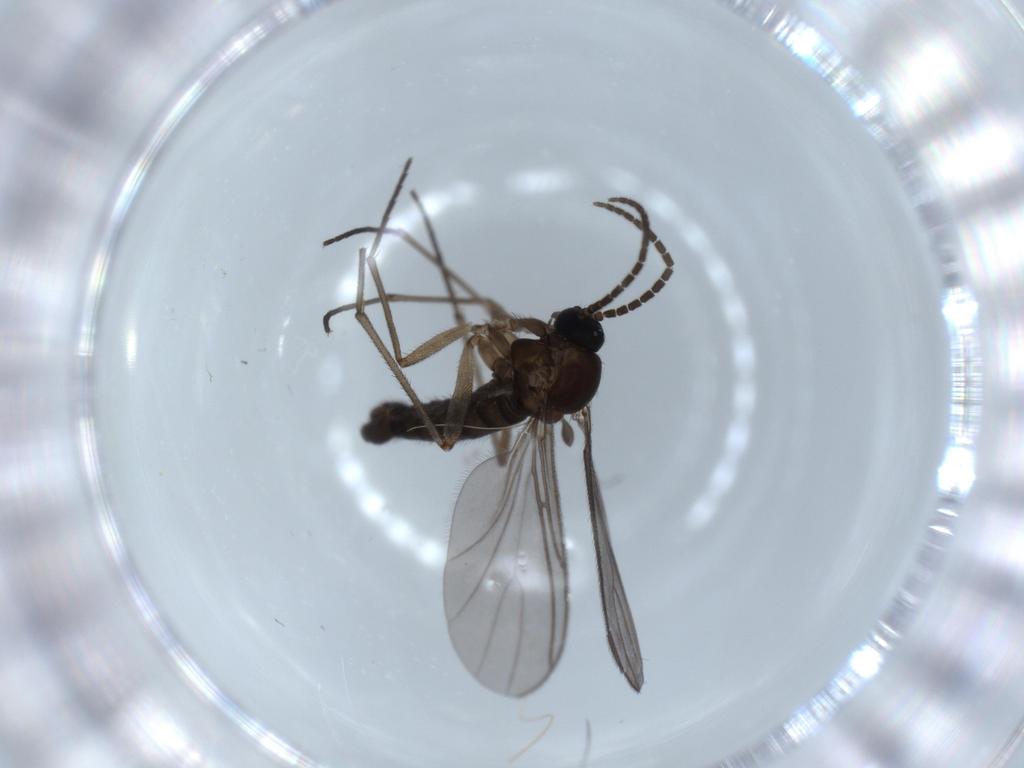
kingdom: Animalia
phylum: Arthropoda
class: Insecta
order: Diptera
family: Sciaridae
